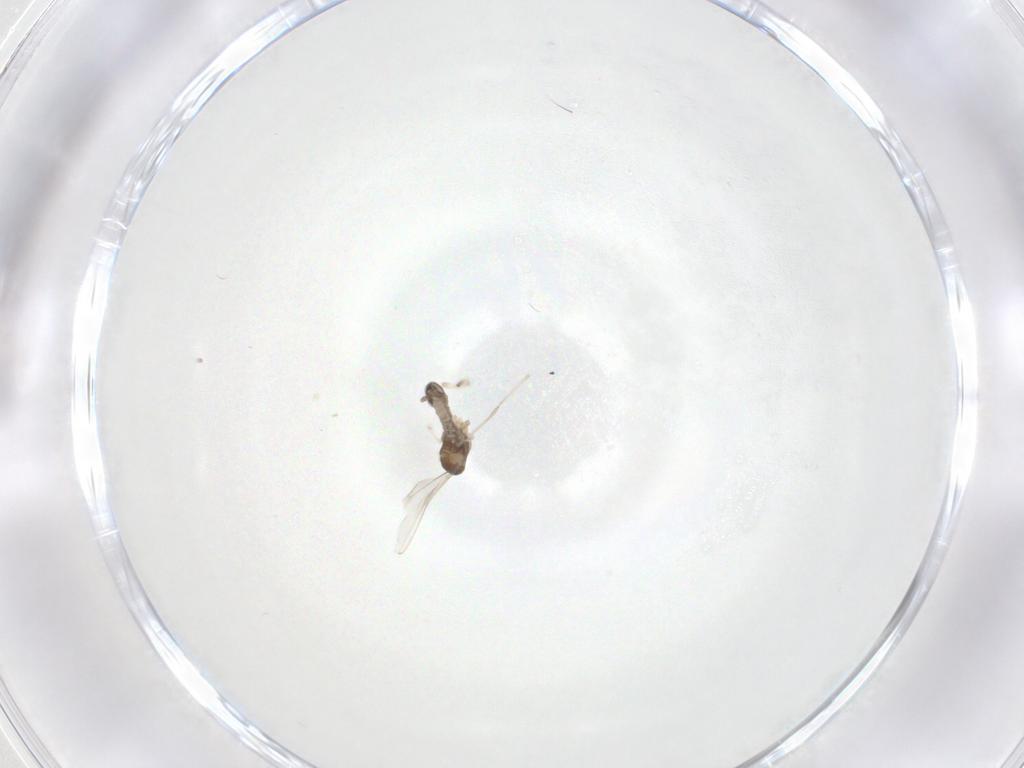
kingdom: Animalia
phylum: Arthropoda
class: Insecta
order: Diptera
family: Cecidomyiidae
